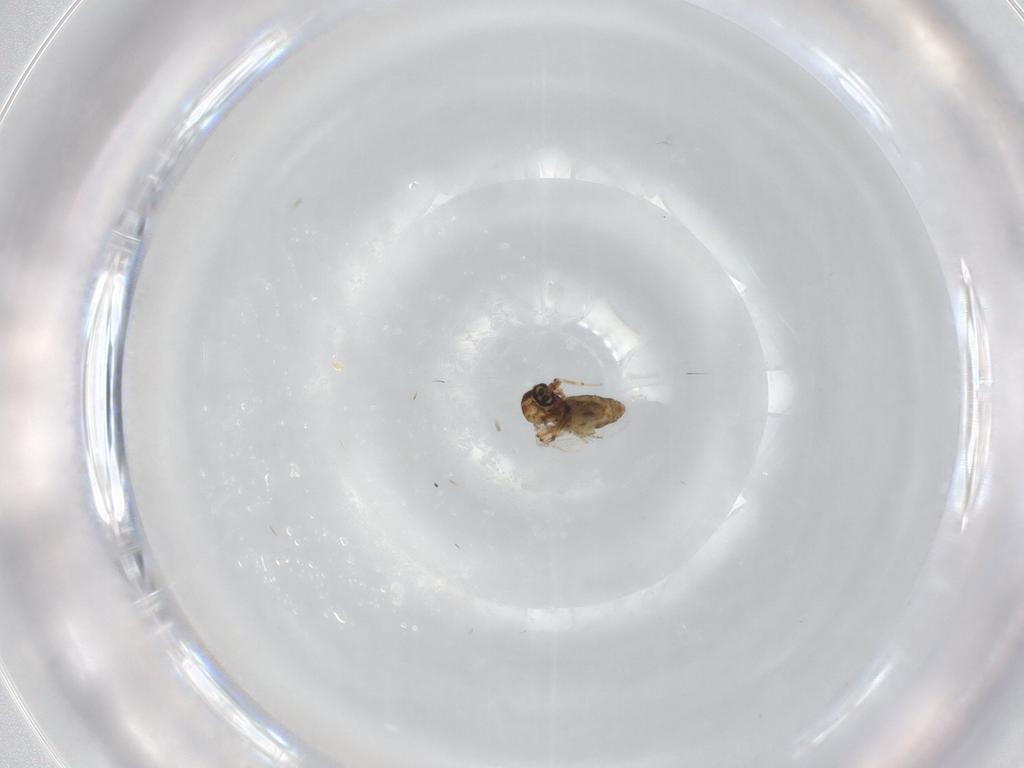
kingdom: Animalia
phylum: Arthropoda
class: Insecta
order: Diptera
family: Ceratopogonidae
